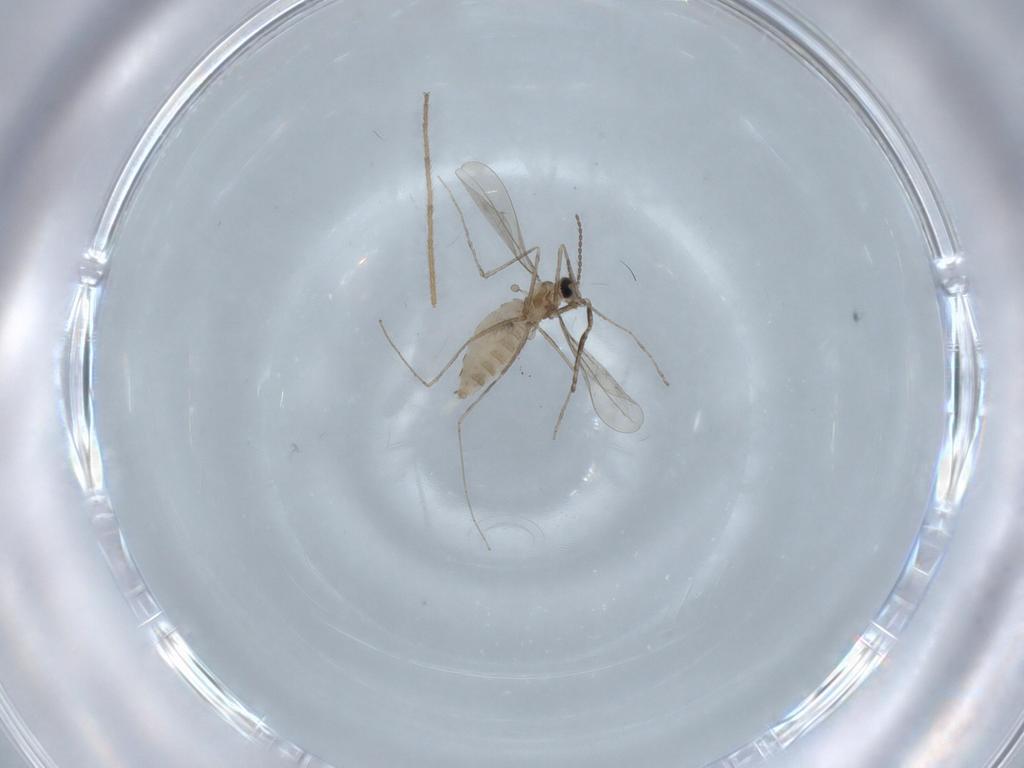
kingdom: Animalia
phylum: Arthropoda
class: Insecta
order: Diptera
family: Chironomidae
